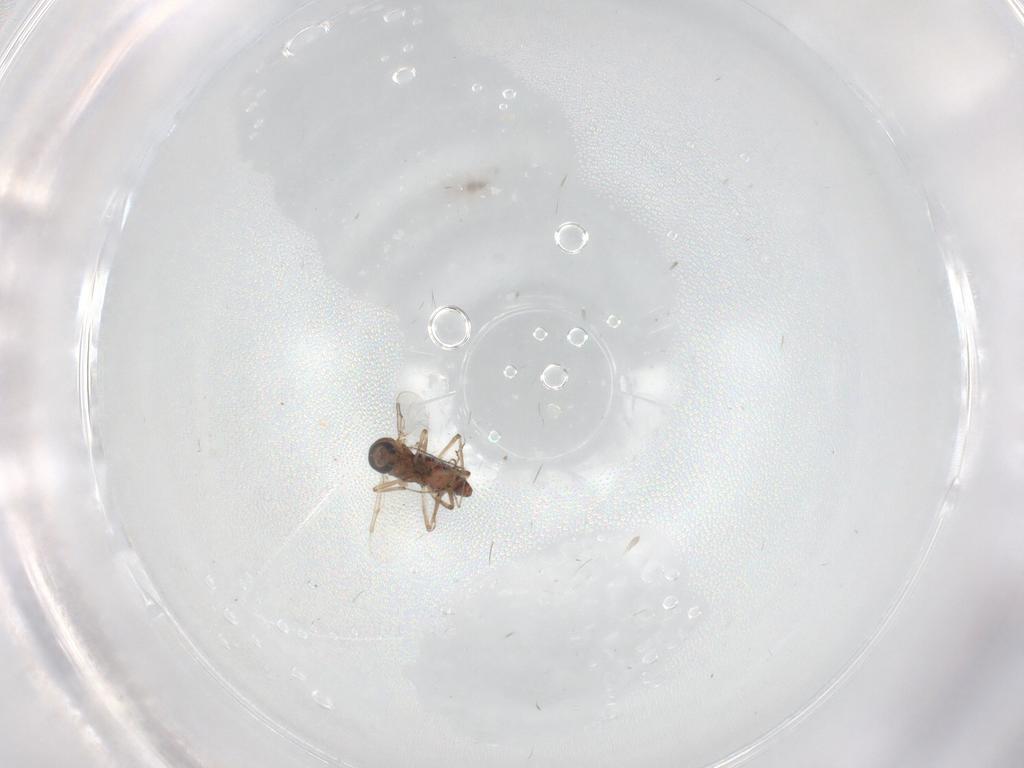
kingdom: Animalia
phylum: Arthropoda
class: Insecta
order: Diptera
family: Ceratopogonidae
